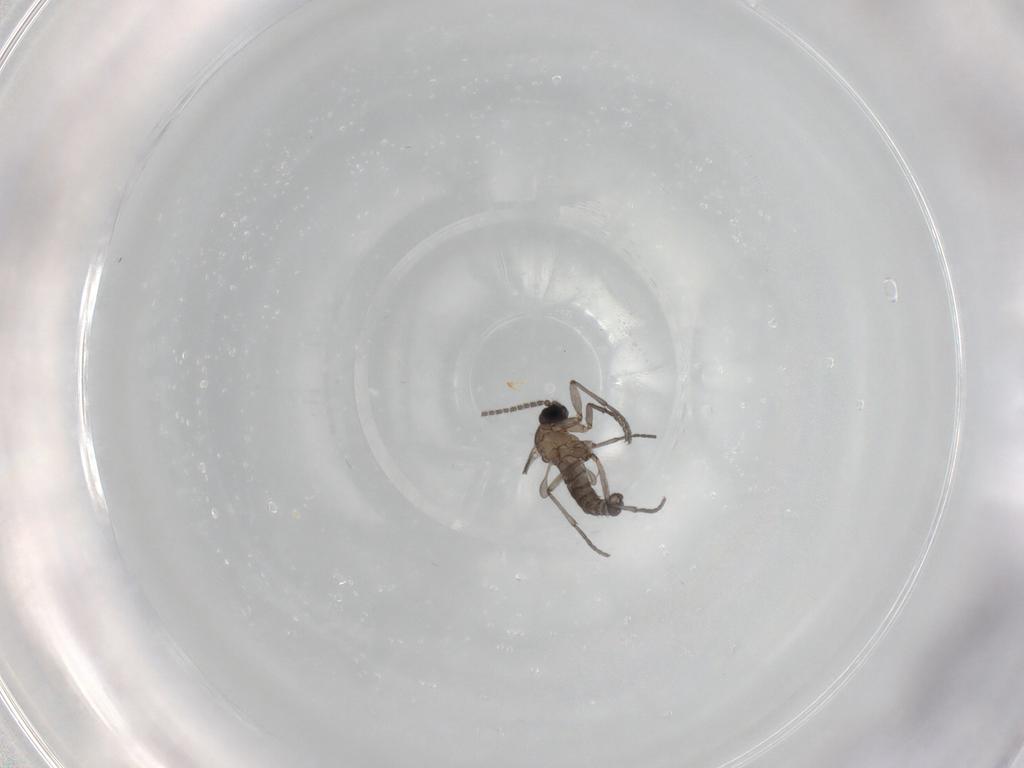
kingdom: Animalia
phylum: Arthropoda
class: Insecta
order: Diptera
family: Sciaridae
